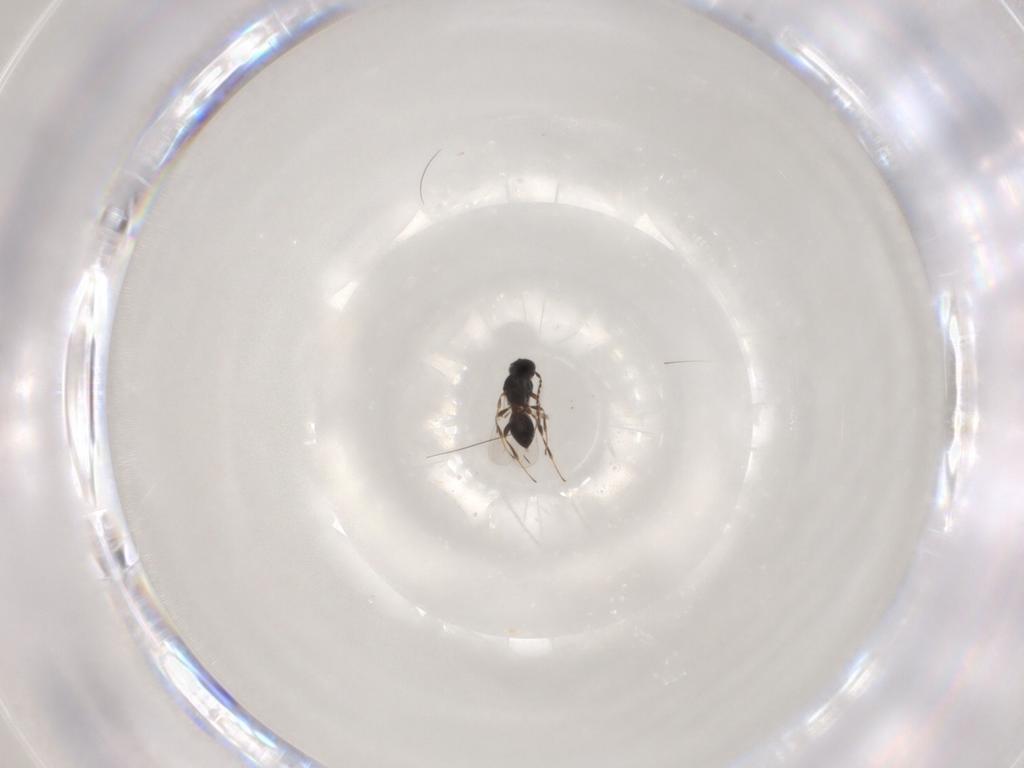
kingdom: Animalia
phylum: Arthropoda
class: Insecta
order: Hymenoptera
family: Platygastridae
